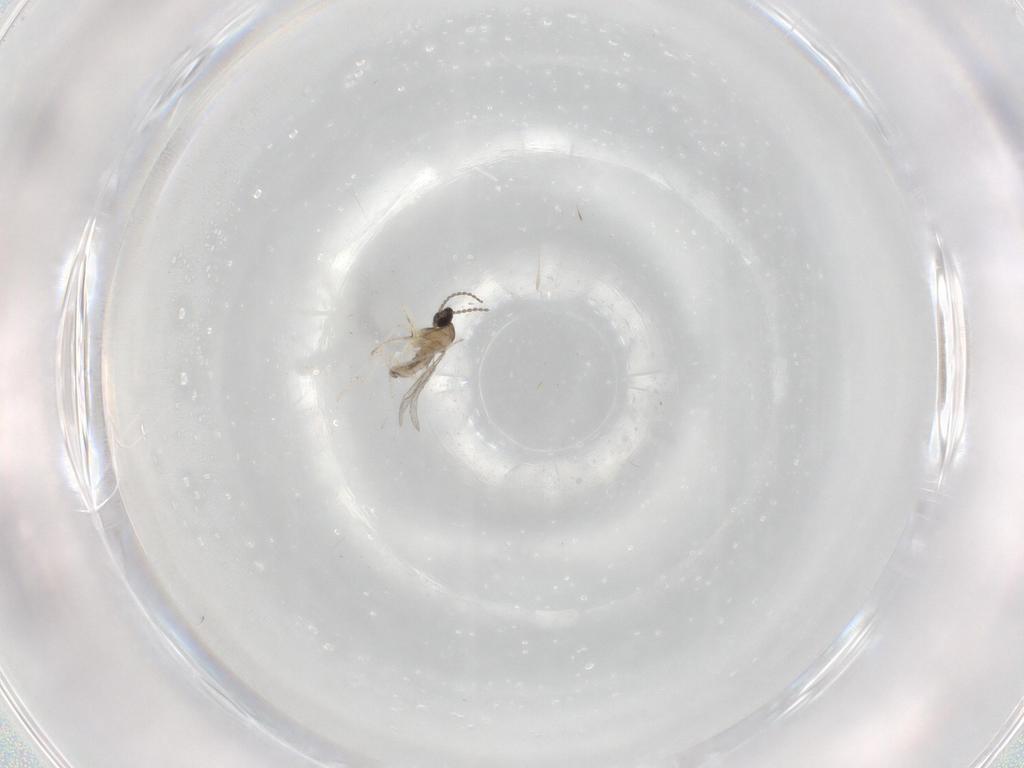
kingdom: Animalia
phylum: Arthropoda
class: Insecta
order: Diptera
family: Cecidomyiidae
